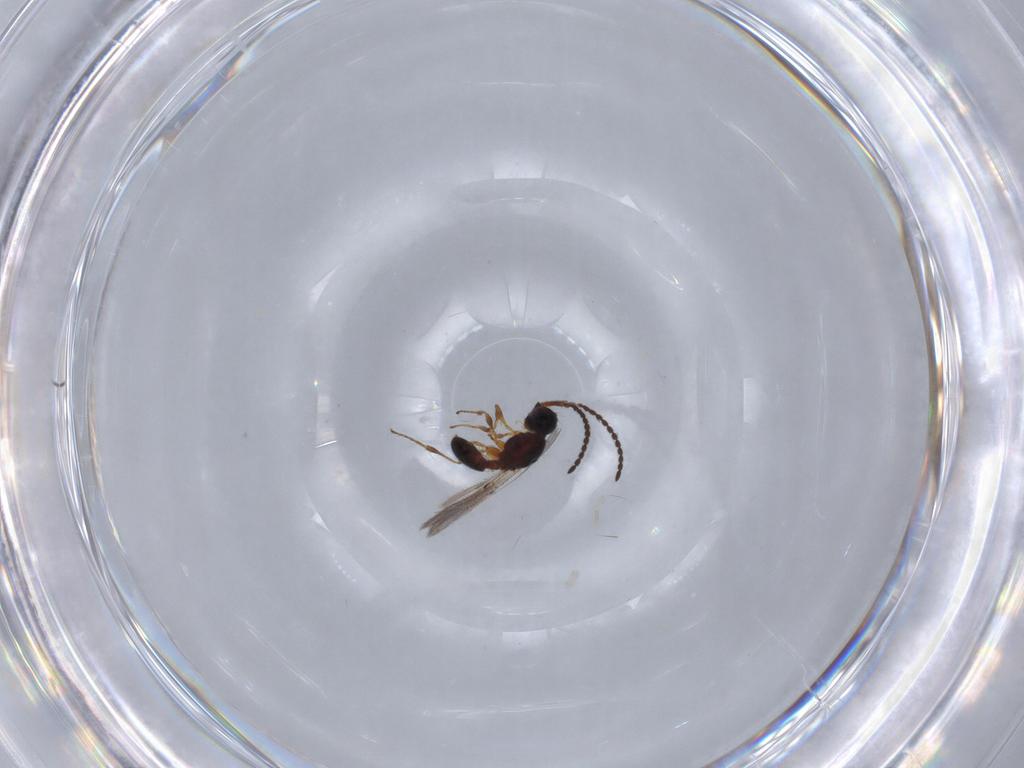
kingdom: Animalia
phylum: Arthropoda
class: Insecta
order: Hymenoptera
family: Diapriidae
